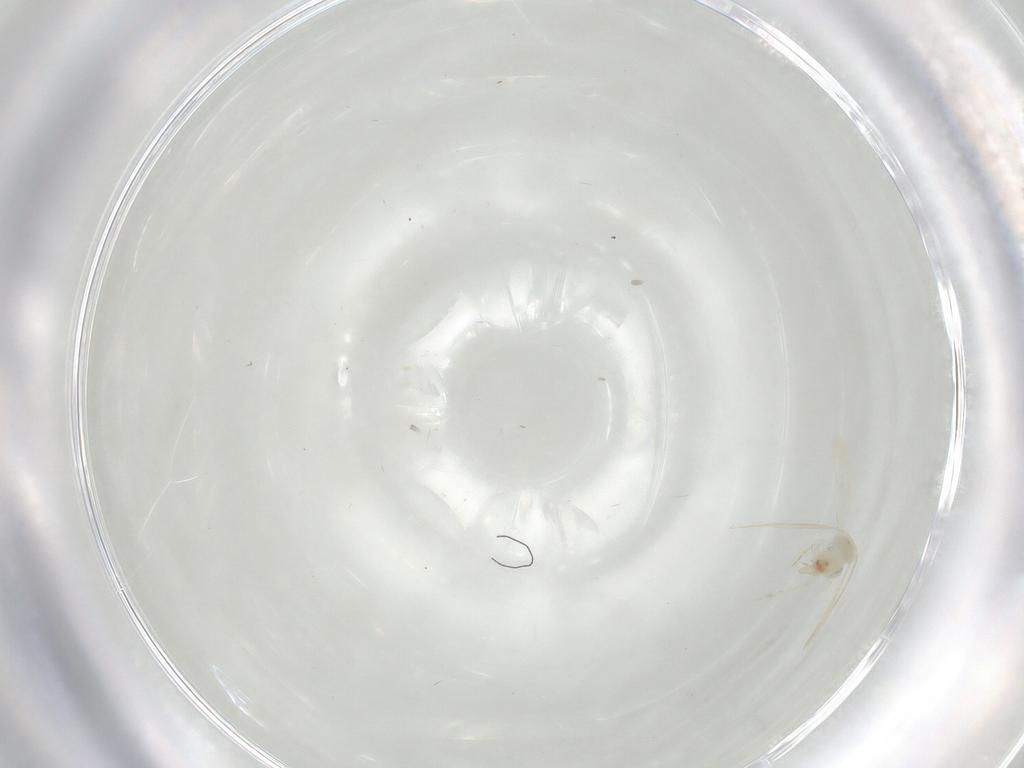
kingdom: Animalia
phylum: Arthropoda
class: Insecta
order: Hemiptera
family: Aleyrodidae
